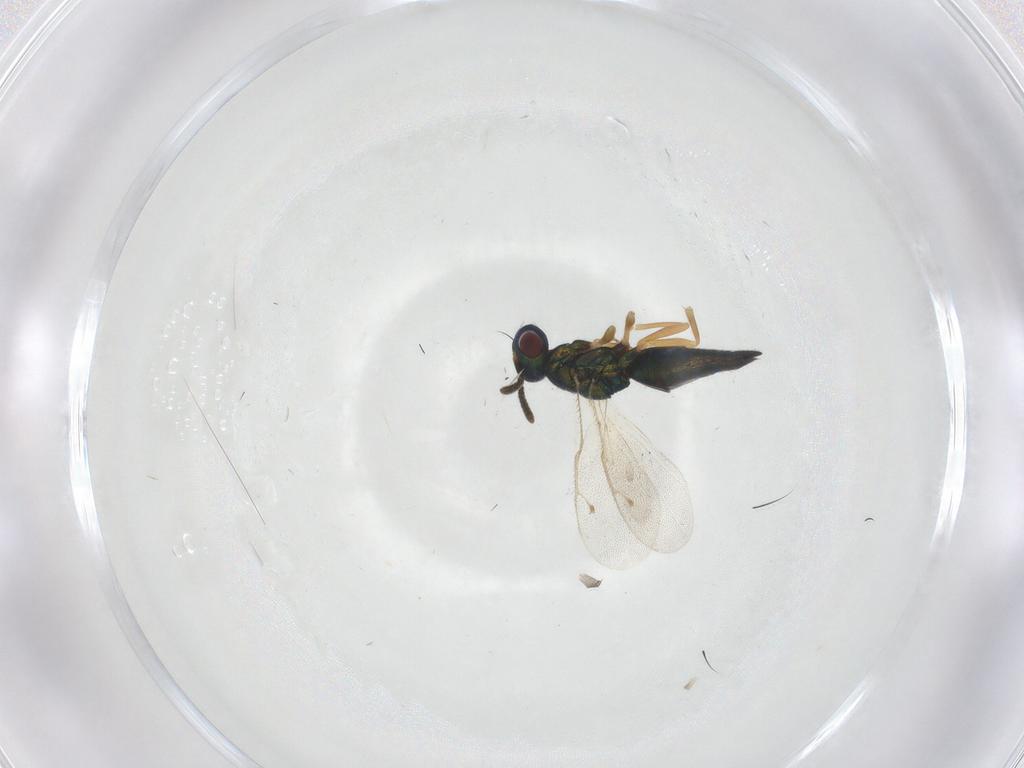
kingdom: Animalia
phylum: Arthropoda
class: Insecta
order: Hymenoptera
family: Pteromalidae
